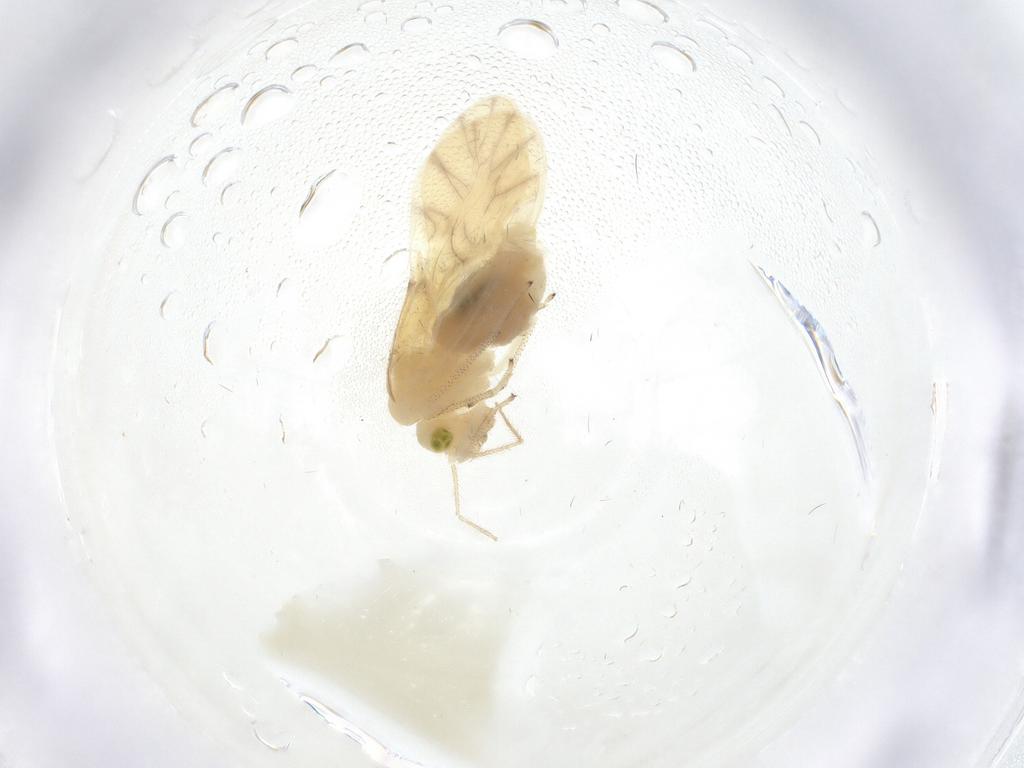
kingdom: Animalia
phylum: Arthropoda
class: Insecta
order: Psocodea
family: Caeciliusidae
